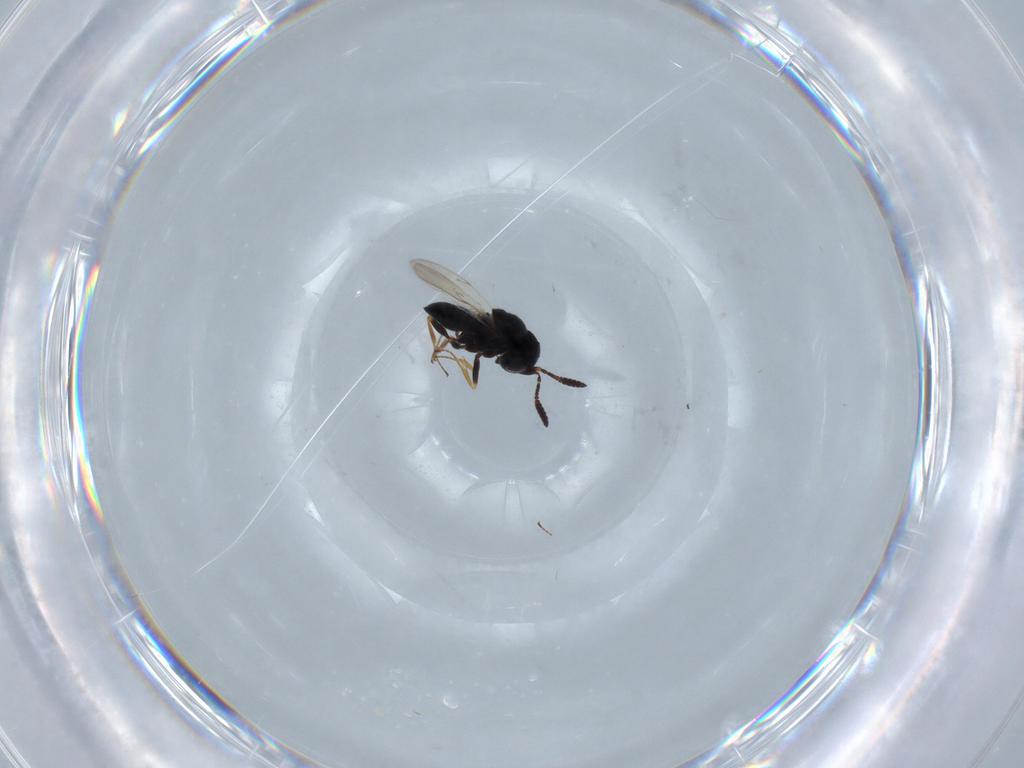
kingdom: Animalia
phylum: Arthropoda
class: Insecta
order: Hymenoptera
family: Scelionidae
